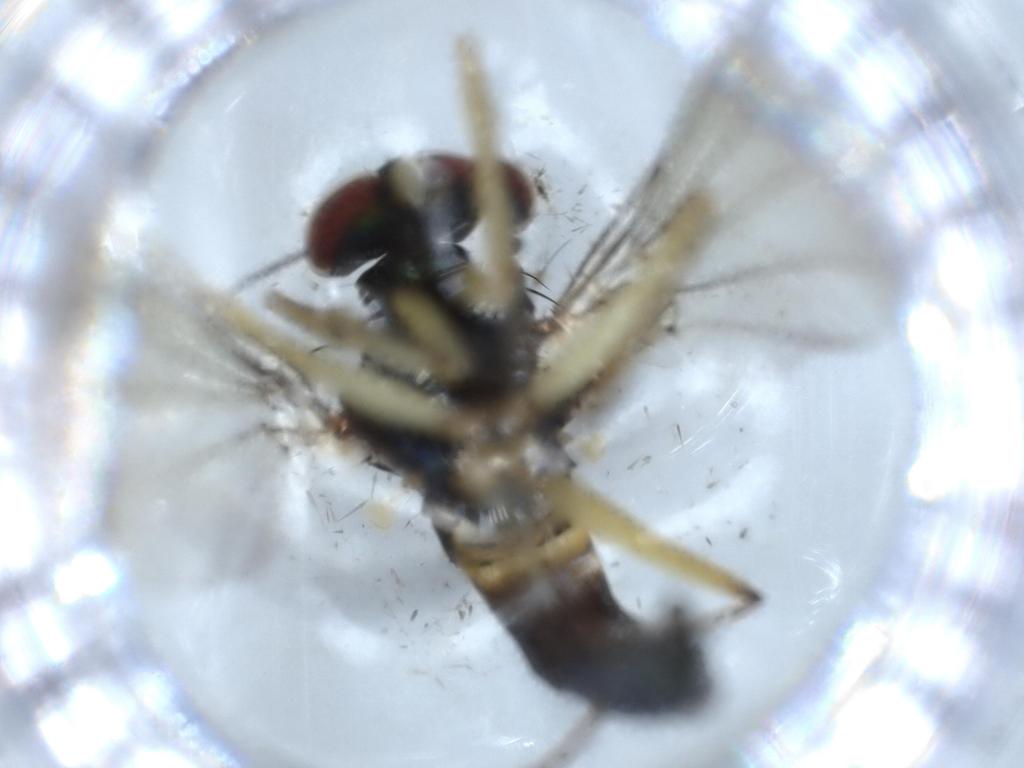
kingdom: Animalia
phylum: Arthropoda
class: Insecta
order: Diptera
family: Dolichopodidae
